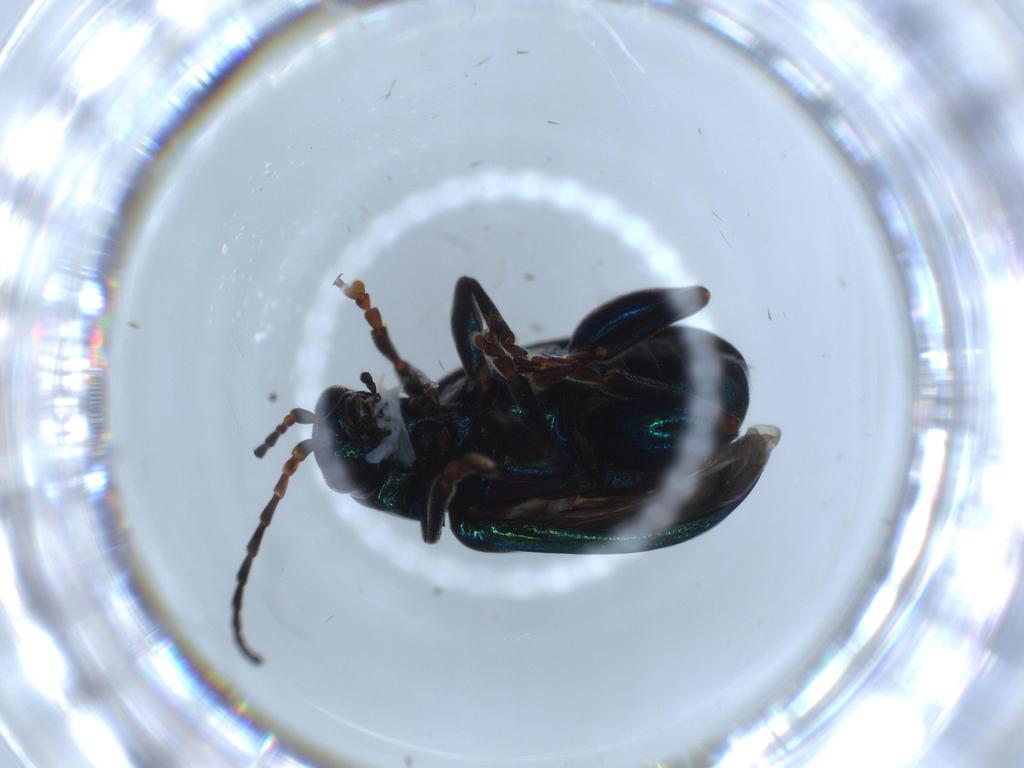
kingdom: Animalia
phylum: Arthropoda
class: Insecta
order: Coleoptera
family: Chrysomelidae
